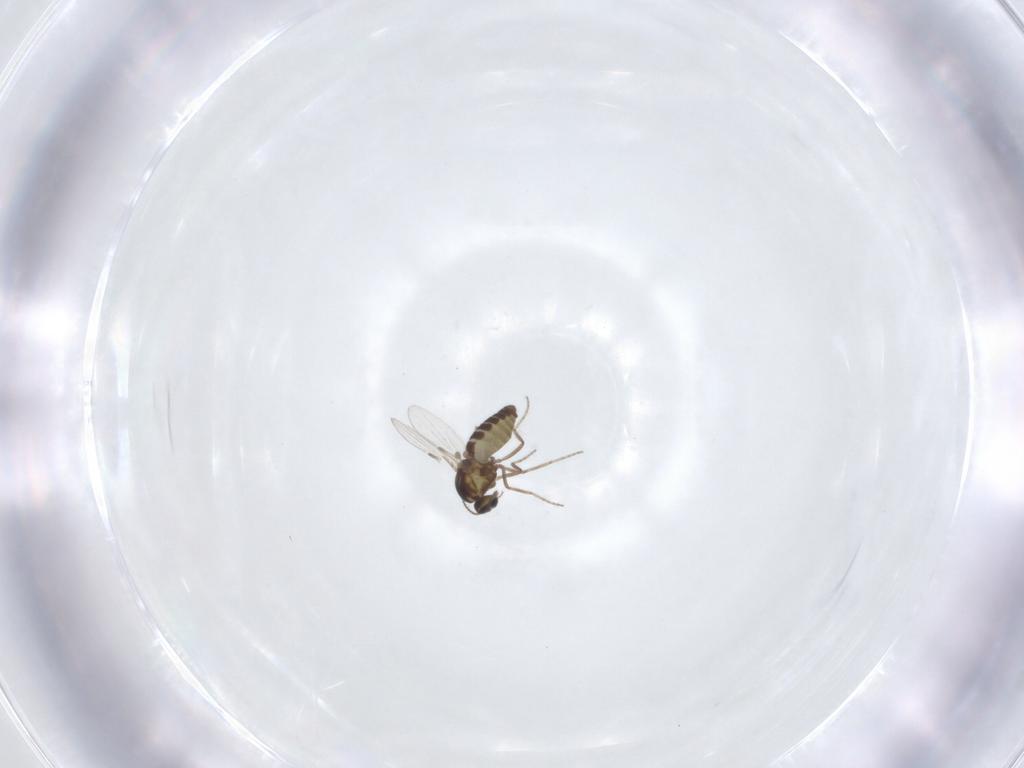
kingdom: Animalia
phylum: Arthropoda
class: Insecta
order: Diptera
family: Ceratopogonidae
